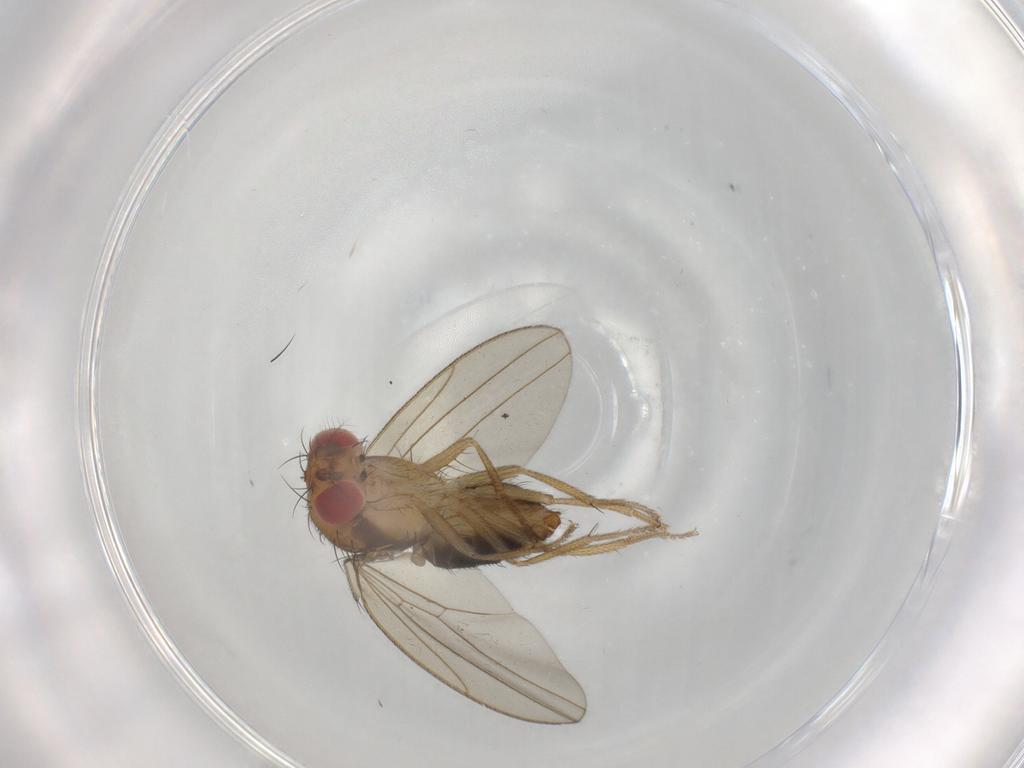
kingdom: Animalia
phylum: Arthropoda
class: Insecta
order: Diptera
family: Drosophilidae
